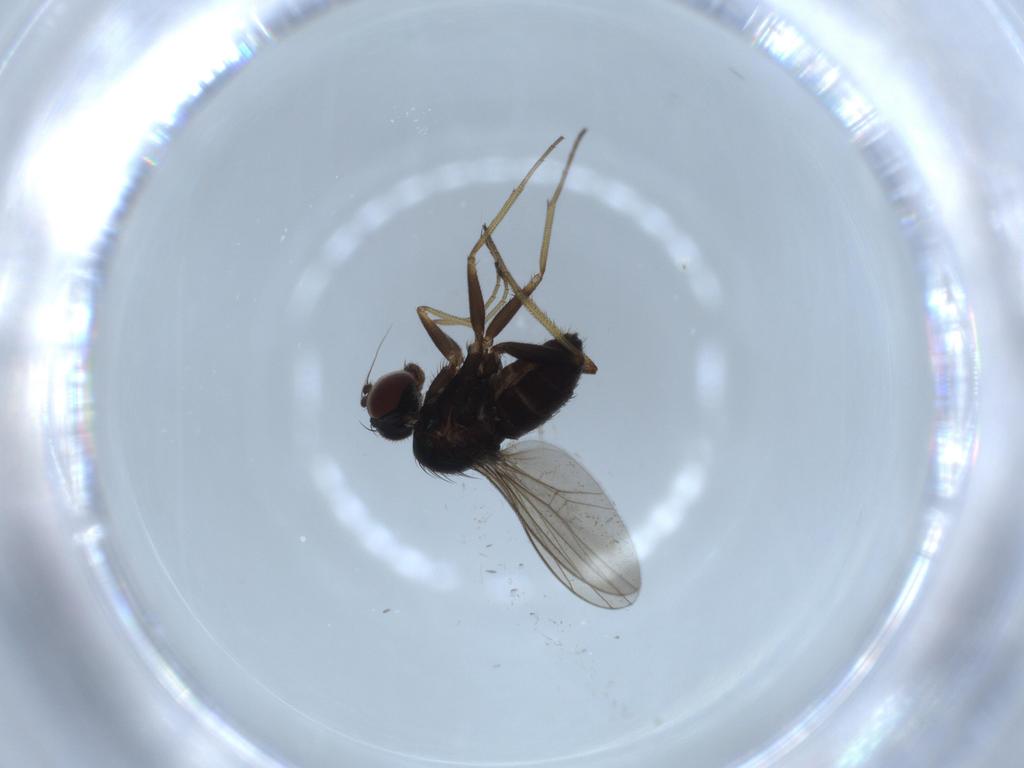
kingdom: Animalia
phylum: Arthropoda
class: Insecta
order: Diptera
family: Dolichopodidae
